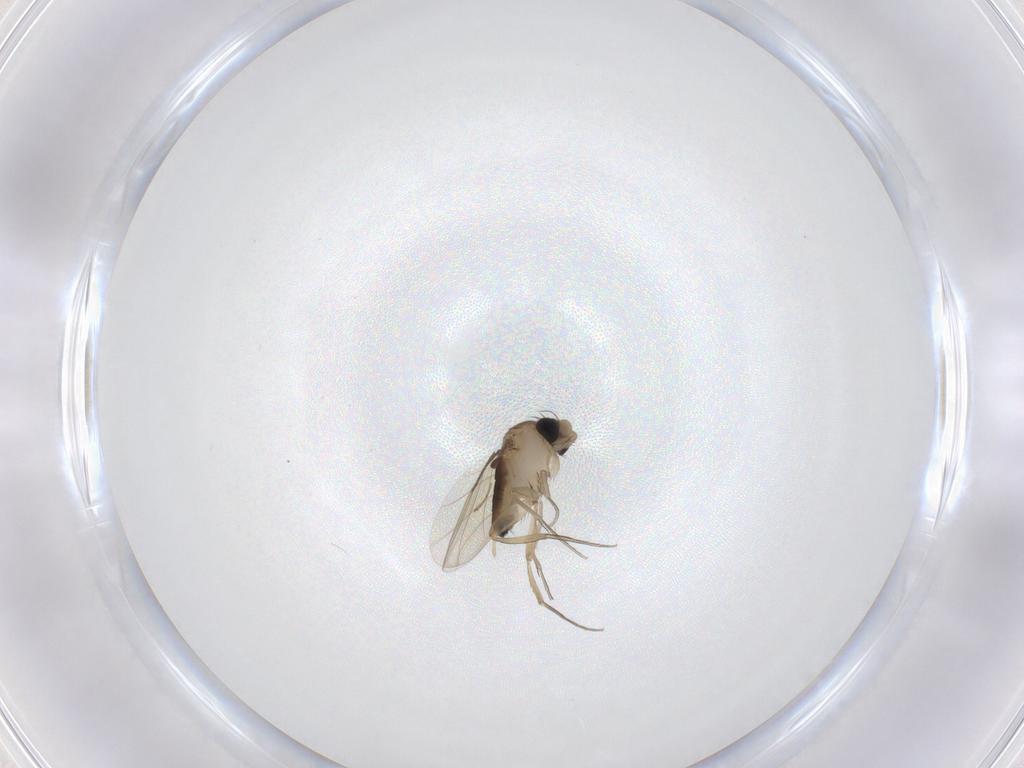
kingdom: Animalia
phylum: Arthropoda
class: Insecta
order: Diptera
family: Phoridae
